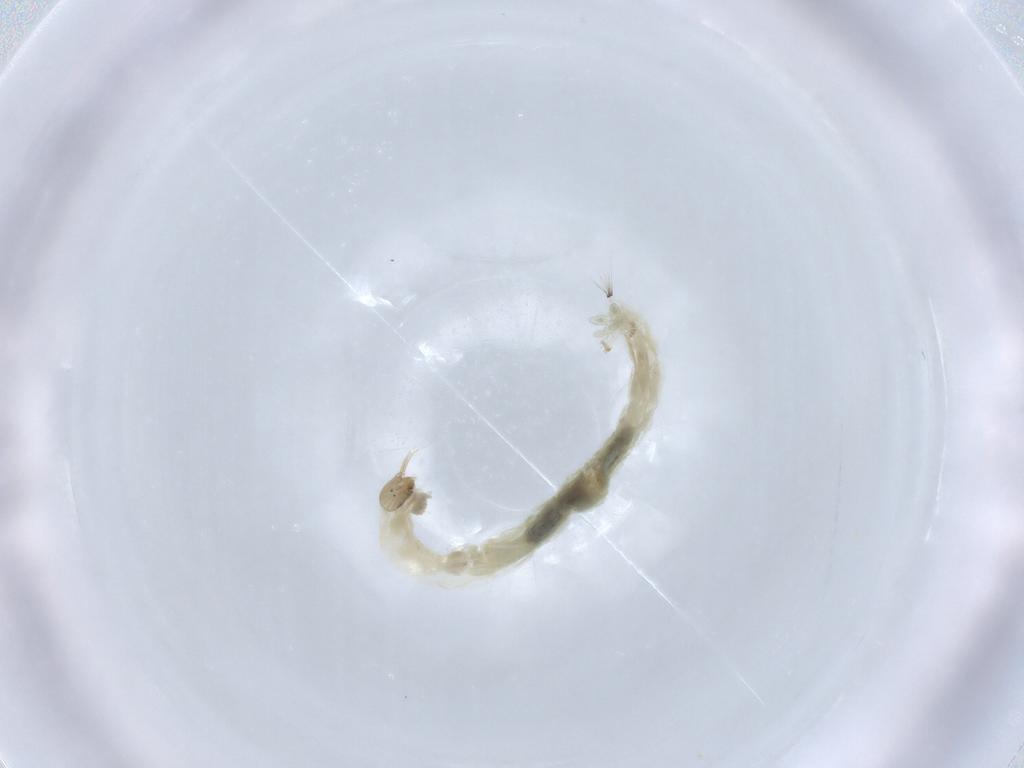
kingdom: Animalia
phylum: Arthropoda
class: Insecta
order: Diptera
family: Chironomidae
